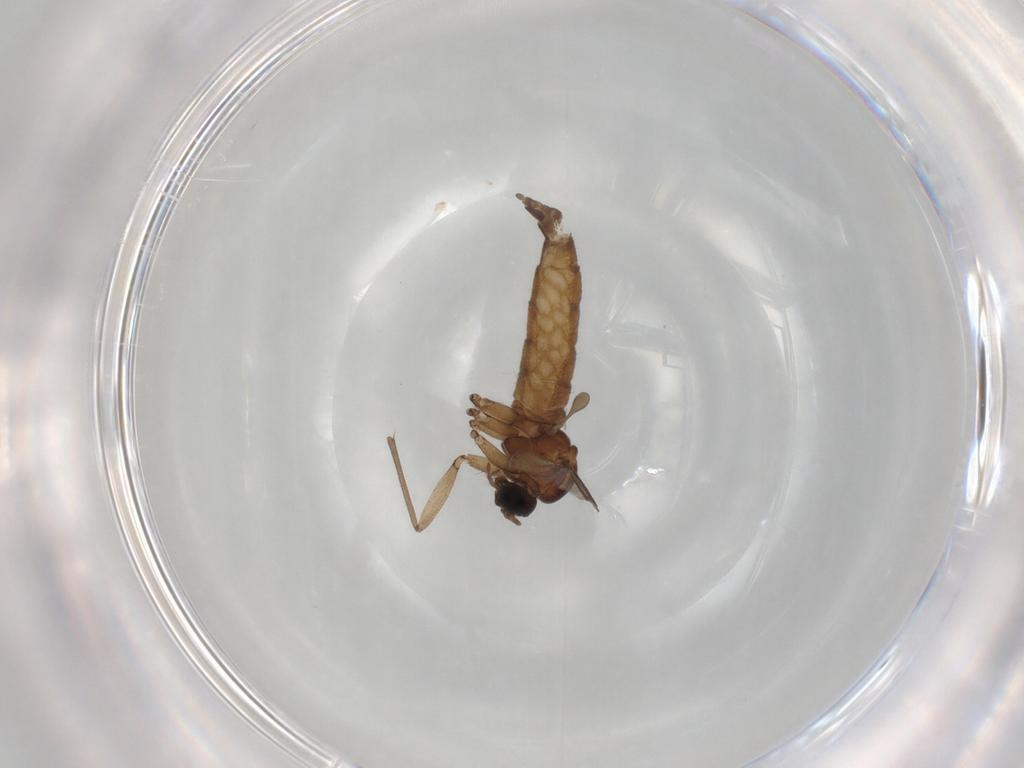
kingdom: Animalia
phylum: Arthropoda
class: Insecta
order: Diptera
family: Sciaridae
